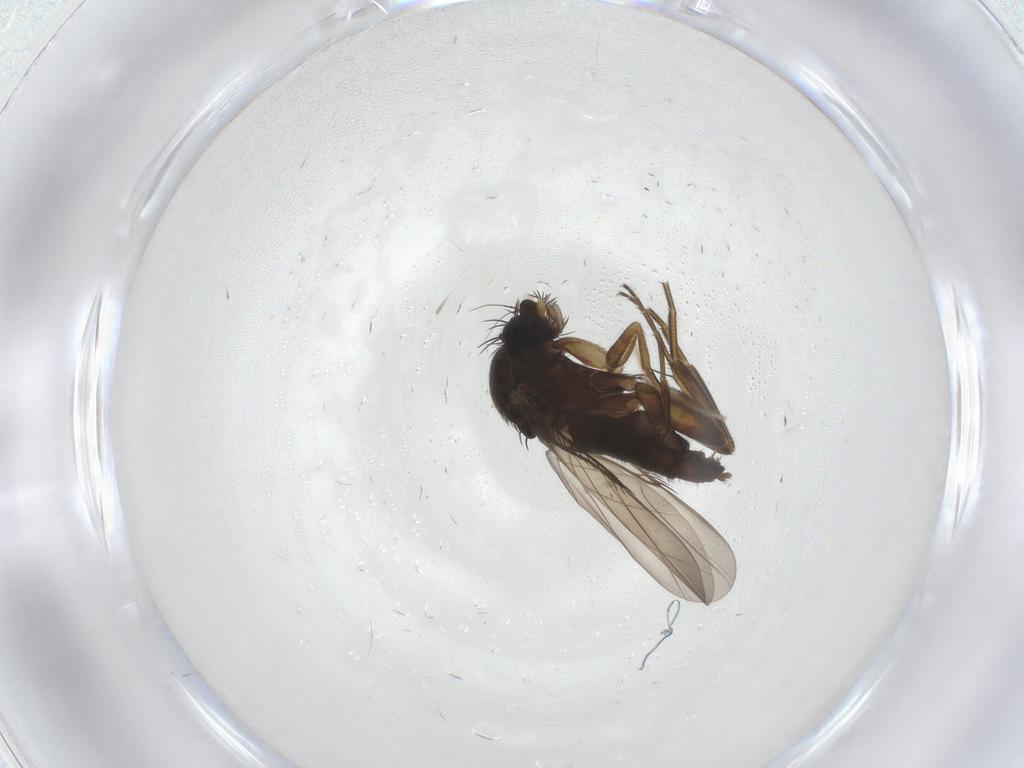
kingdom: Animalia
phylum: Arthropoda
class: Insecta
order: Diptera
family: Phoridae
